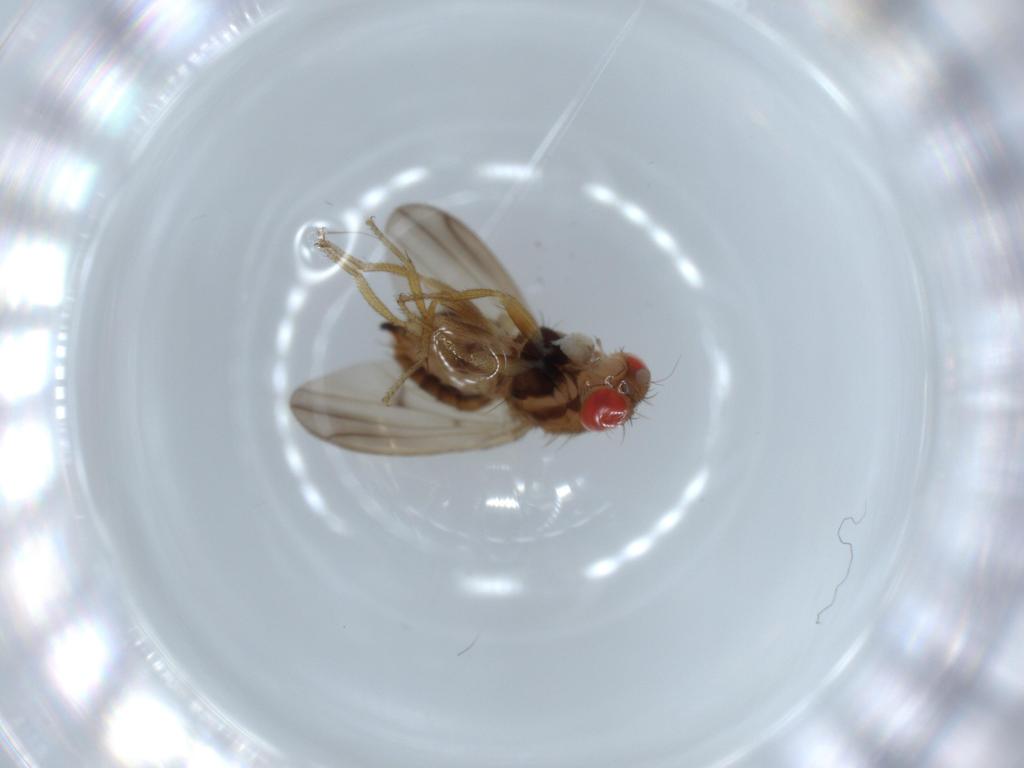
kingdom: Animalia
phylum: Arthropoda
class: Insecta
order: Diptera
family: Drosophilidae
